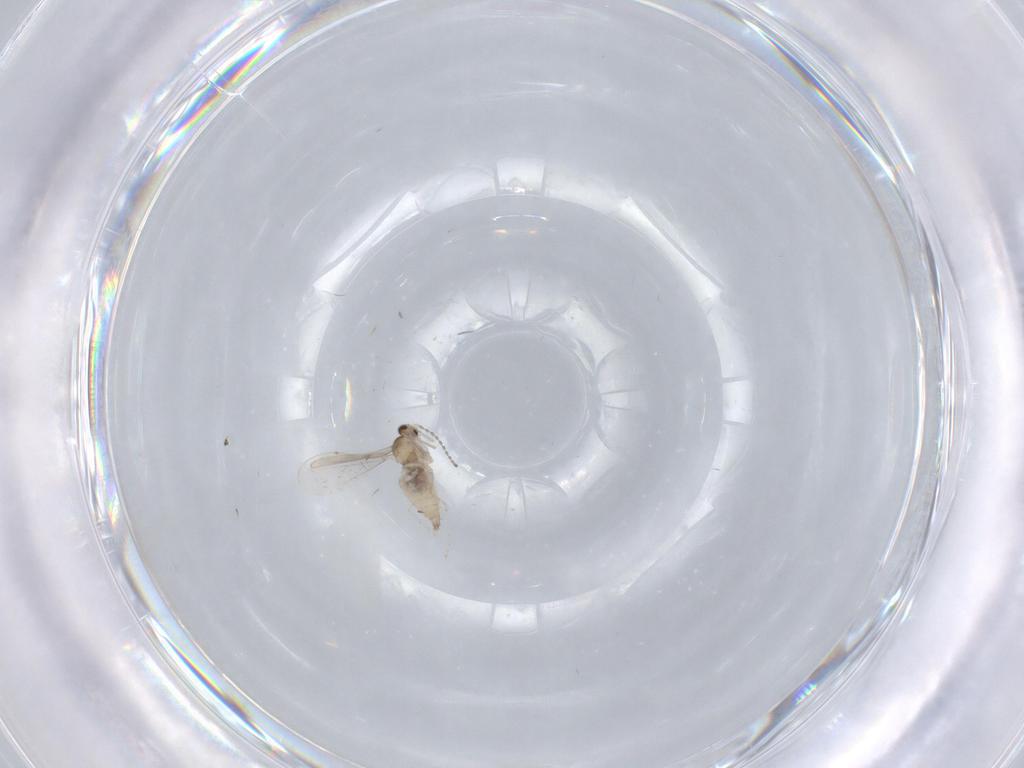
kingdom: Animalia
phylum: Arthropoda
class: Insecta
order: Diptera
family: Cecidomyiidae
